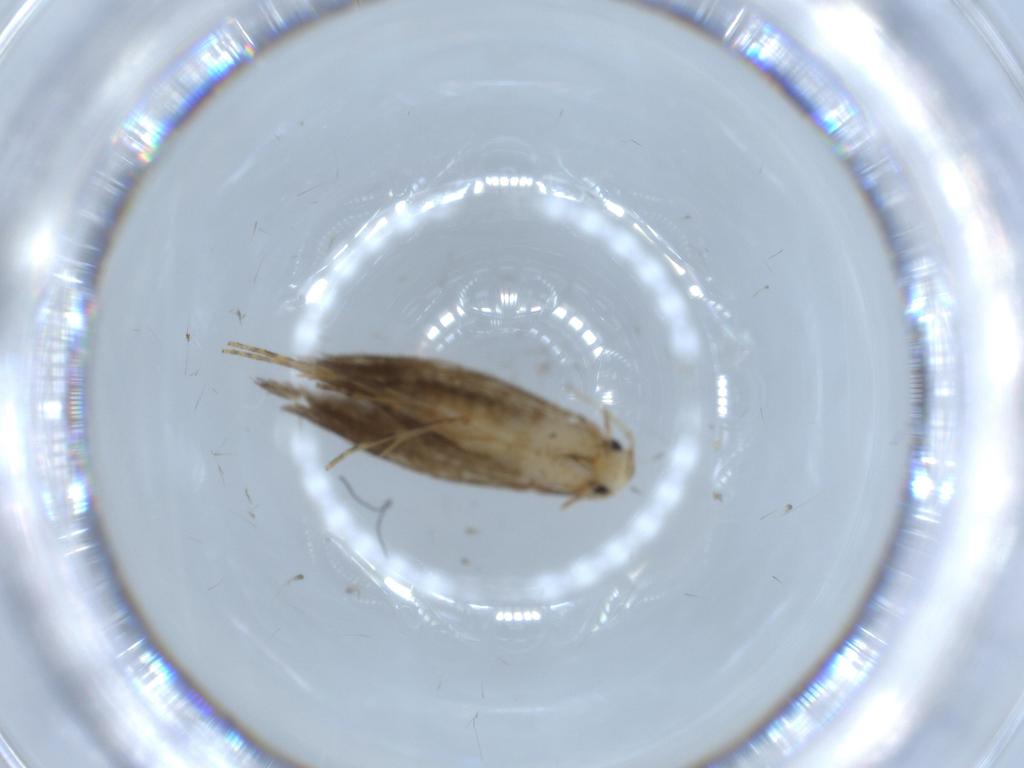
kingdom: Animalia
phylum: Arthropoda
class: Insecta
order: Lepidoptera
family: Tineidae
